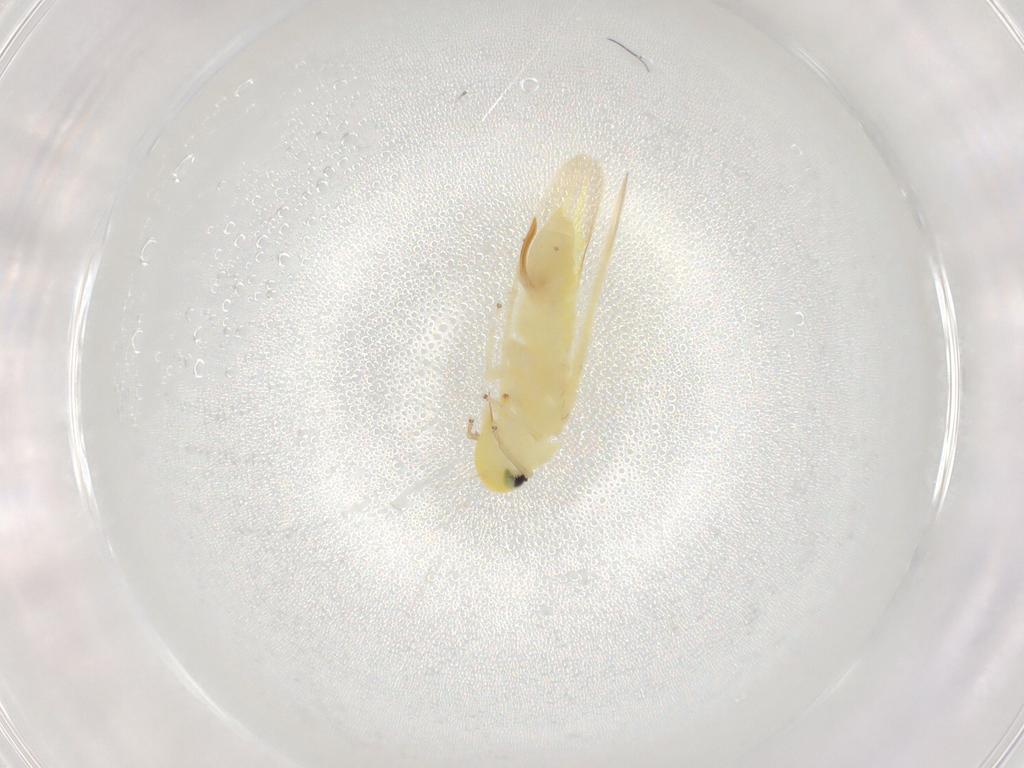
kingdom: Animalia
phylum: Arthropoda
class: Insecta
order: Hemiptera
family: Cicadellidae
